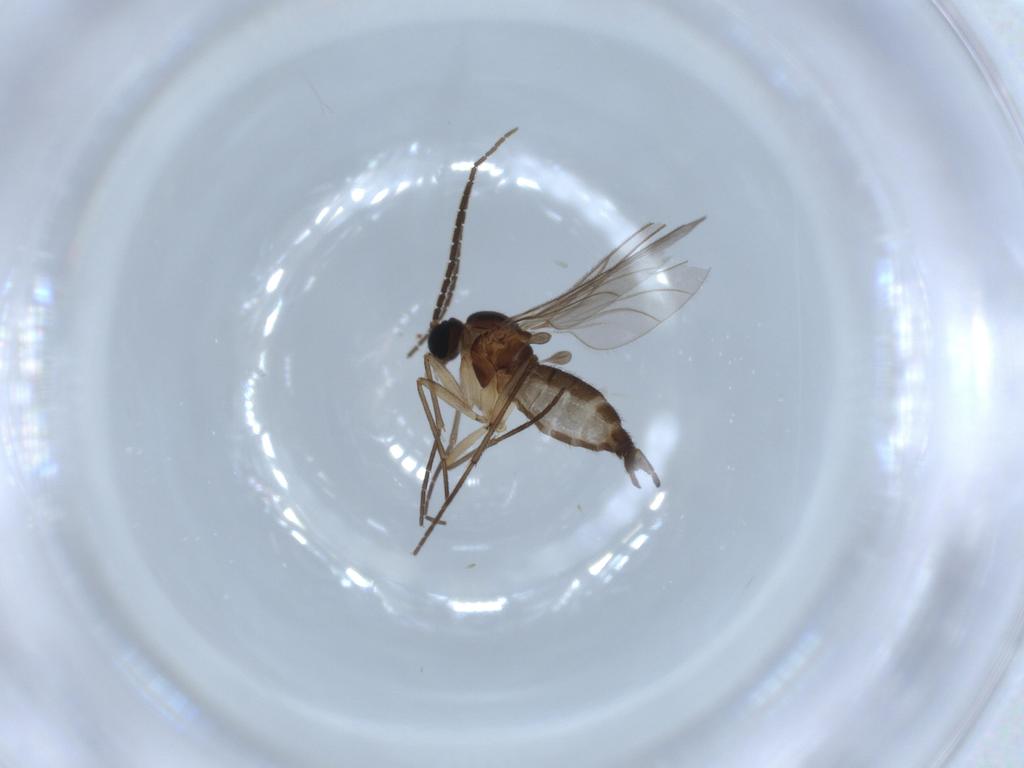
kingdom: Animalia
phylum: Arthropoda
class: Insecta
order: Diptera
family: Sciaridae
